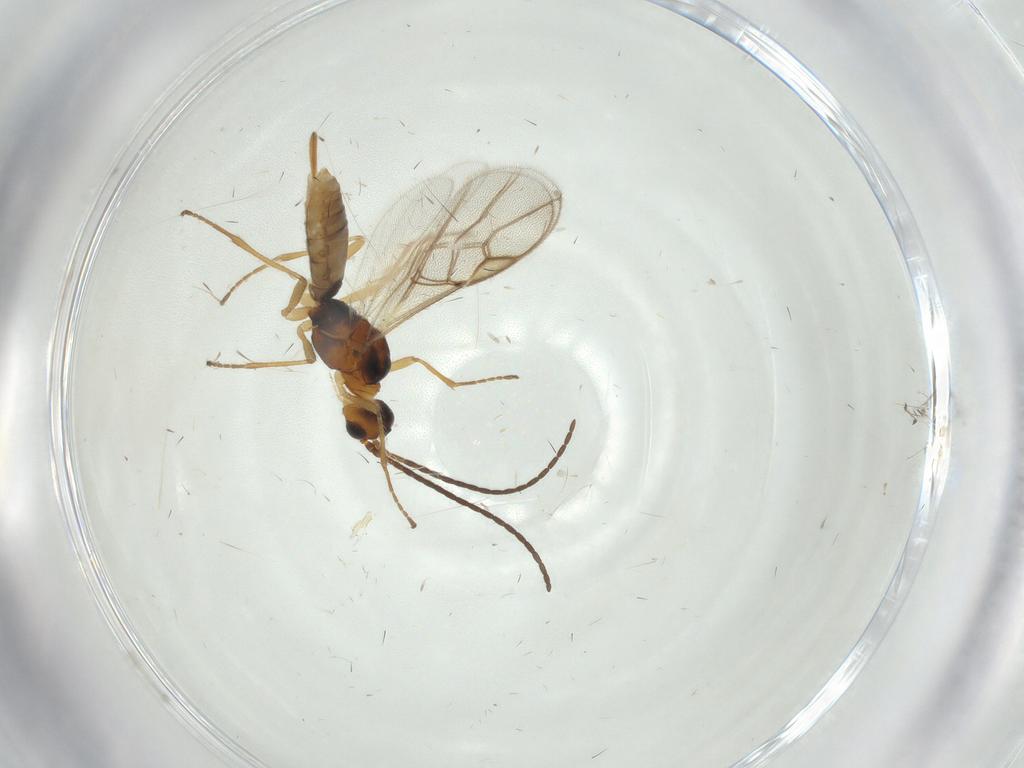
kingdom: Animalia
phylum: Arthropoda
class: Insecta
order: Hymenoptera
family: Braconidae
